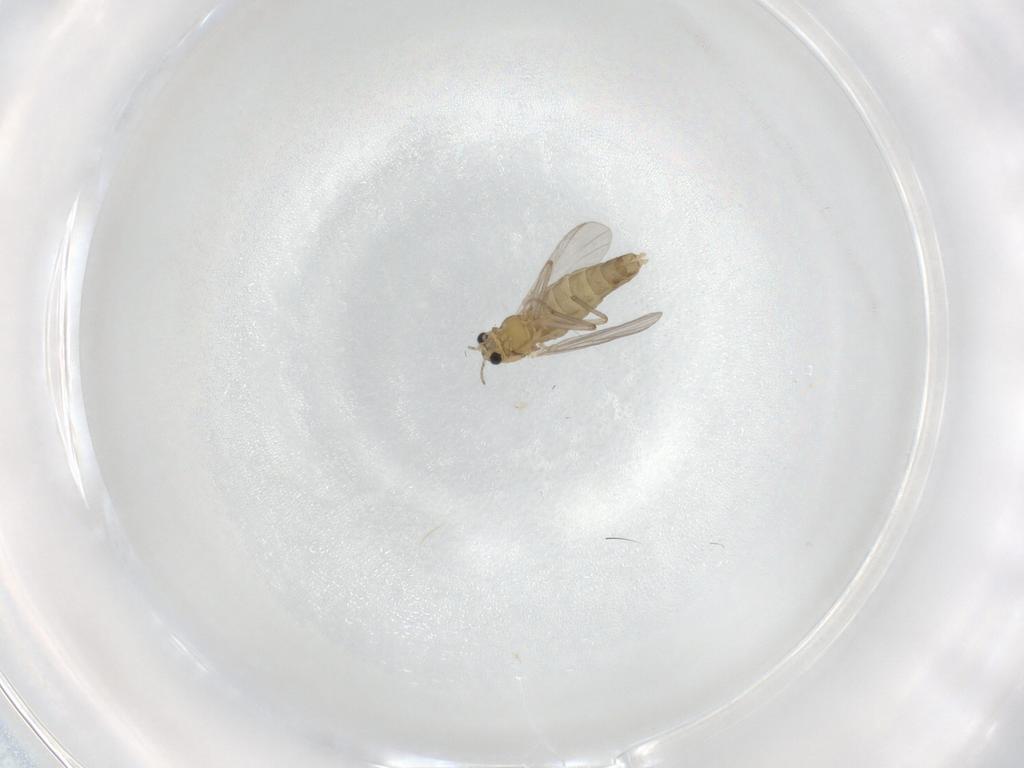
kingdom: Animalia
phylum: Arthropoda
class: Insecta
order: Diptera
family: Chironomidae
